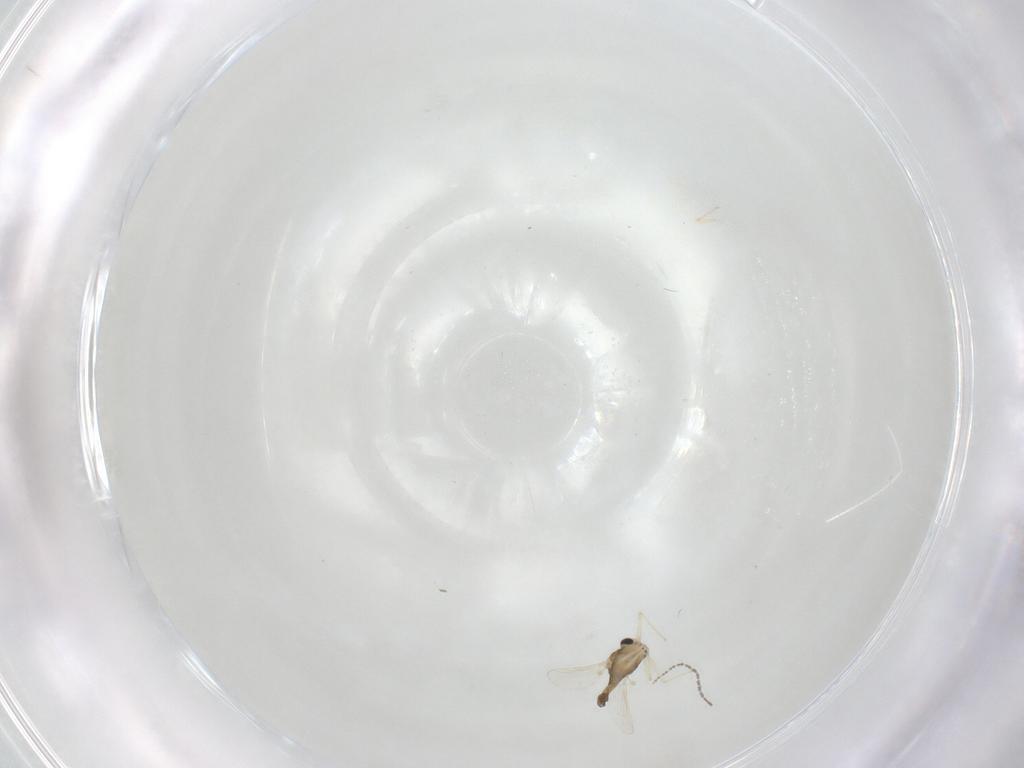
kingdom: Animalia
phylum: Arthropoda
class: Insecta
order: Diptera
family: Chironomidae
